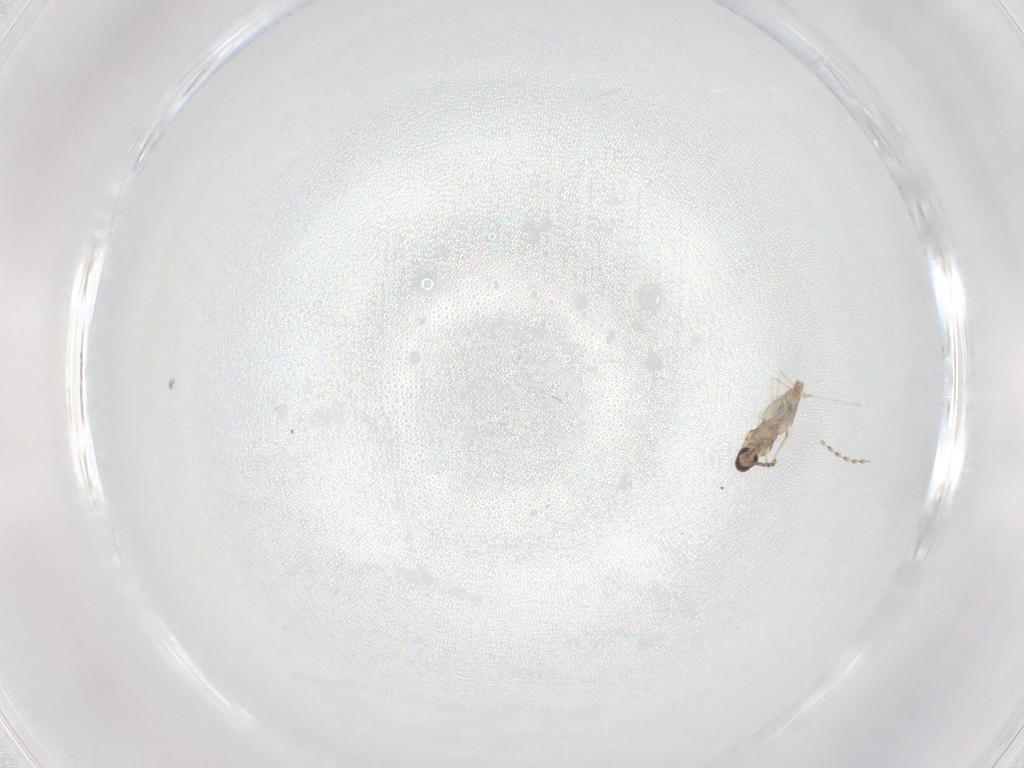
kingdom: Animalia
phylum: Arthropoda
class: Insecta
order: Diptera
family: Cecidomyiidae
